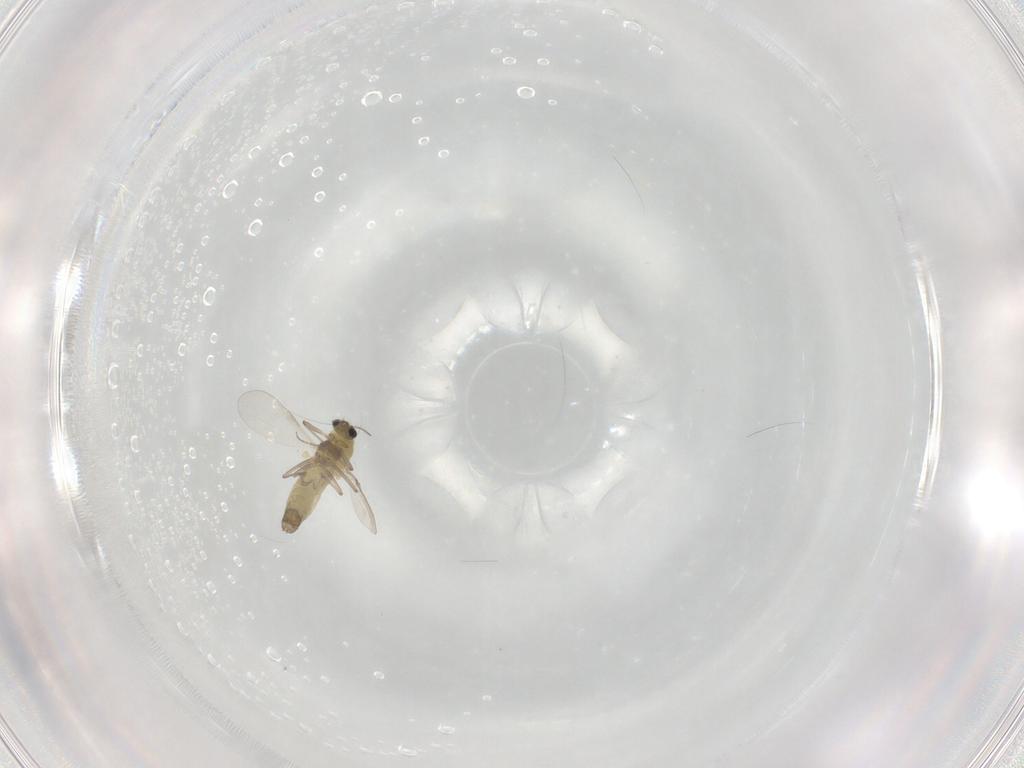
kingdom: Animalia
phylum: Arthropoda
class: Insecta
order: Diptera
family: Chironomidae
